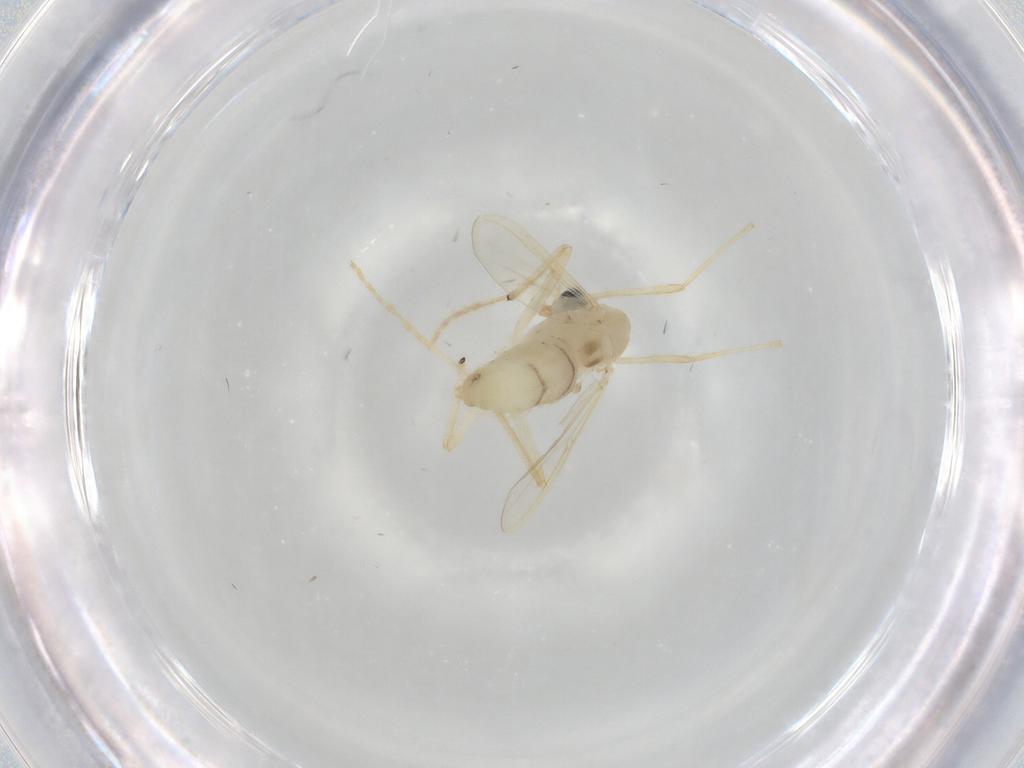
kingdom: Animalia
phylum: Arthropoda
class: Insecta
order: Diptera
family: Chironomidae
